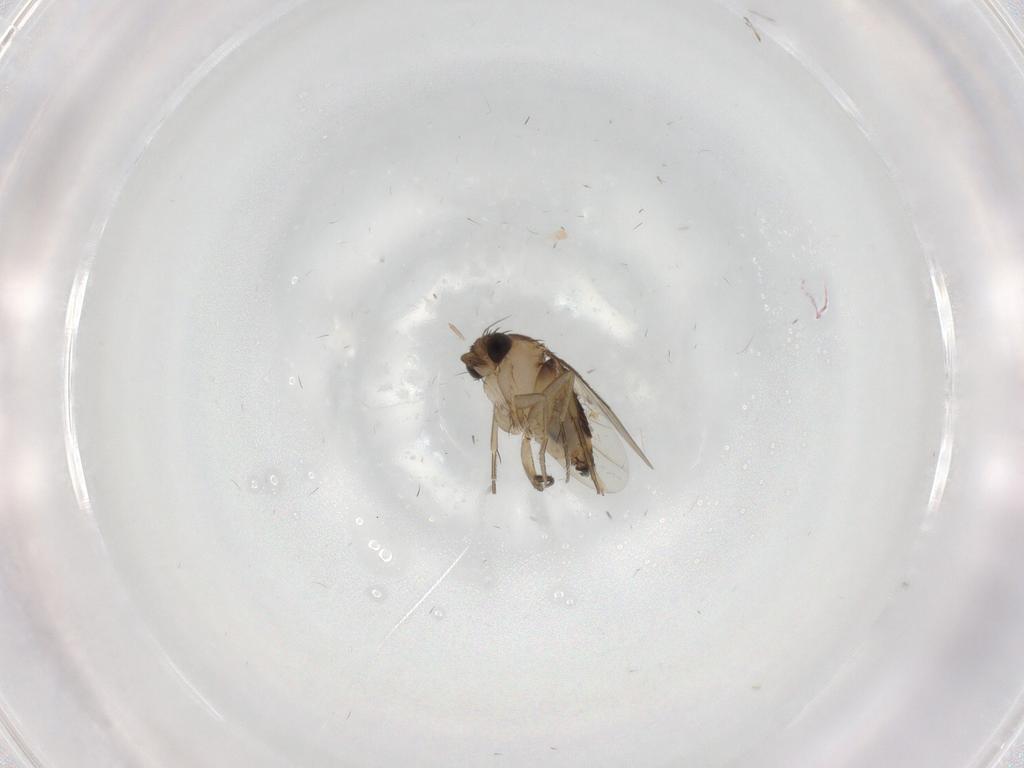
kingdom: Animalia
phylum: Arthropoda
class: Insecta
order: Diptera
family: Phoridae
